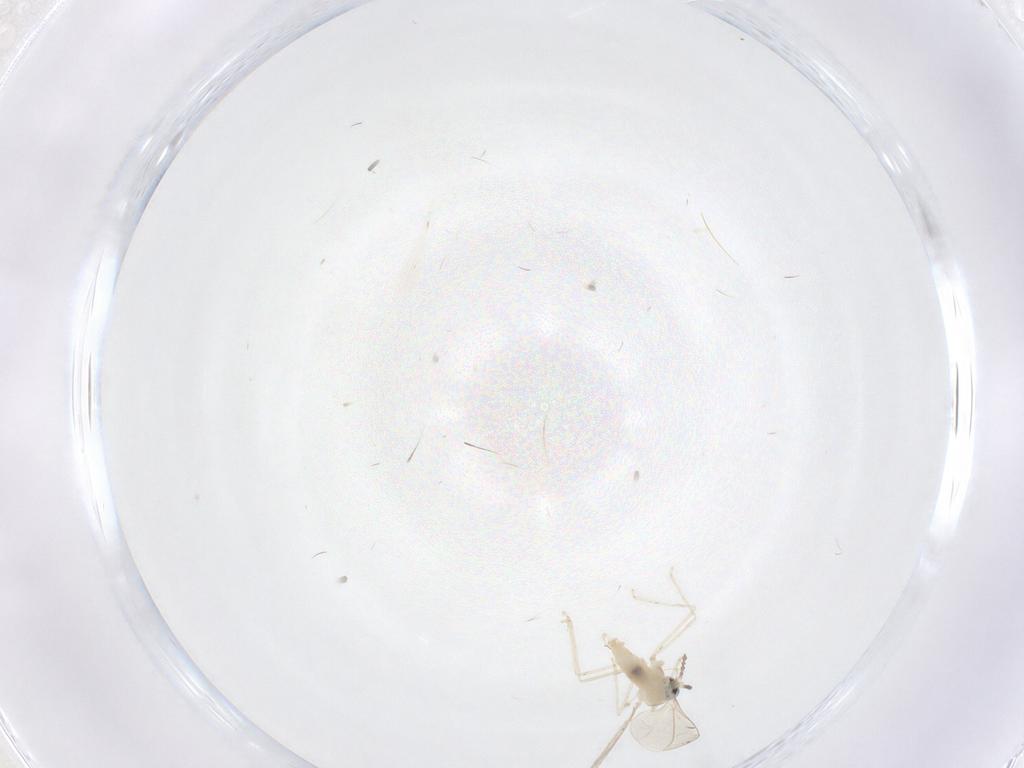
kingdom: Animalia
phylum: Arthropoda
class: Insecta
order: Diptera
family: Cecidomyiidae
